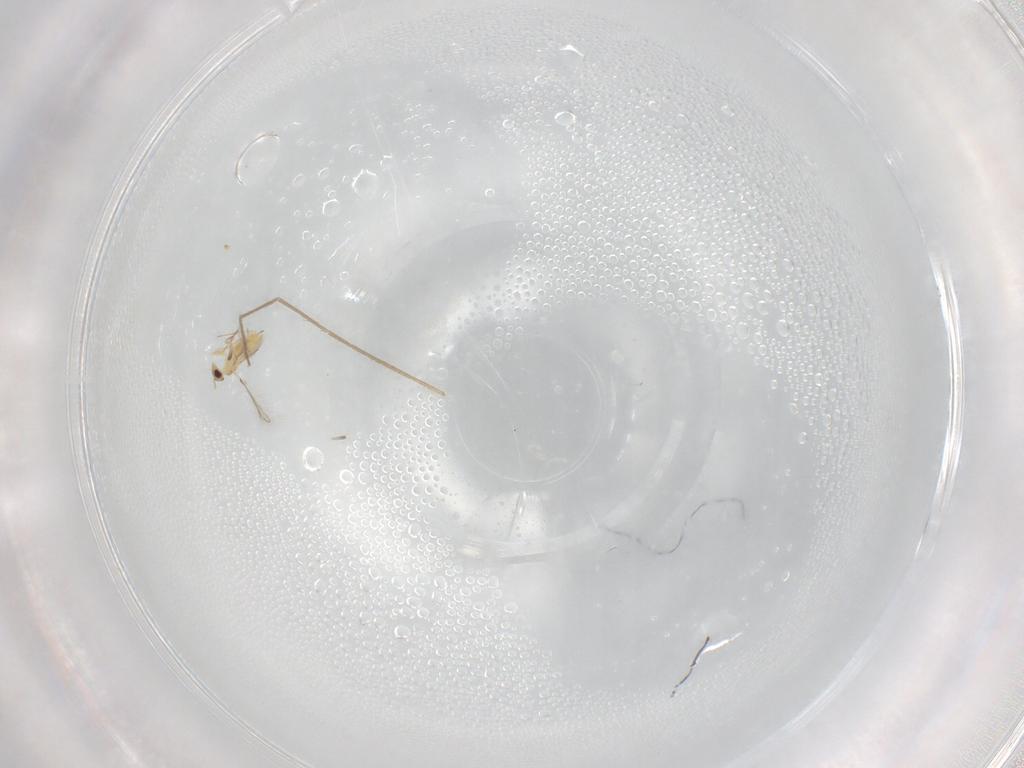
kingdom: Animalia
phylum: Arthropoda
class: Insecta
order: Hymenoptera
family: Mymaridae
